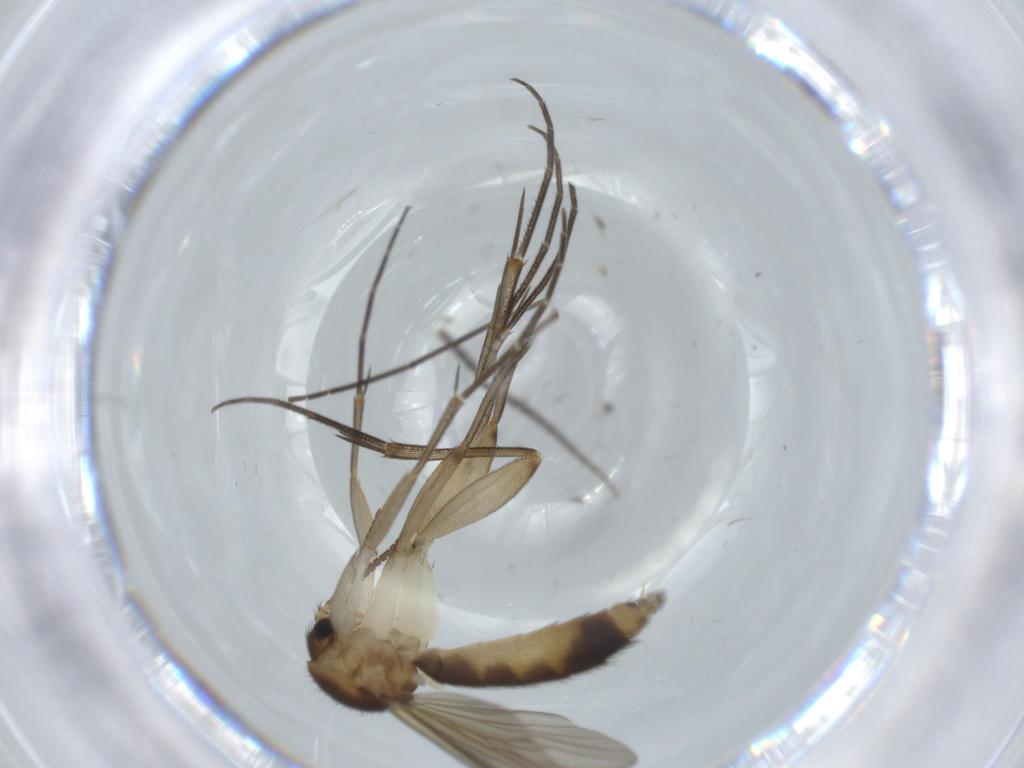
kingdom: Animalia
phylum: Arthropoda
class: Insecta
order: Diptera
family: Sciaridae
